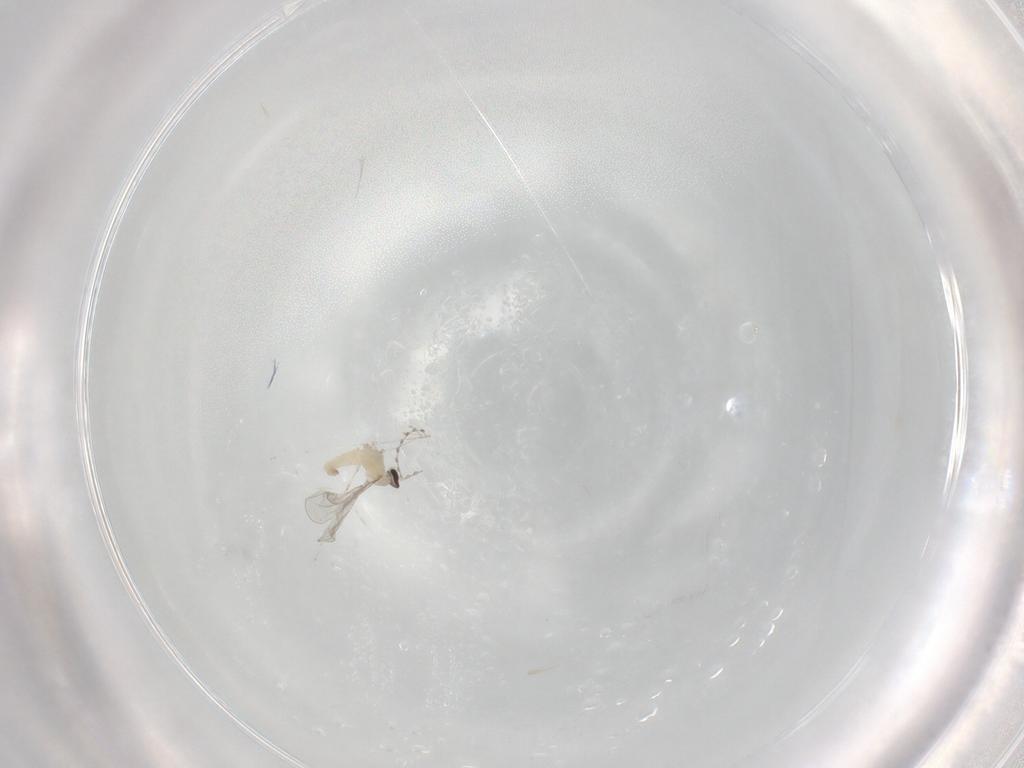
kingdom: Animalia
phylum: Arthropoda
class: Insecta
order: Diptera
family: Cecidomyiidae
